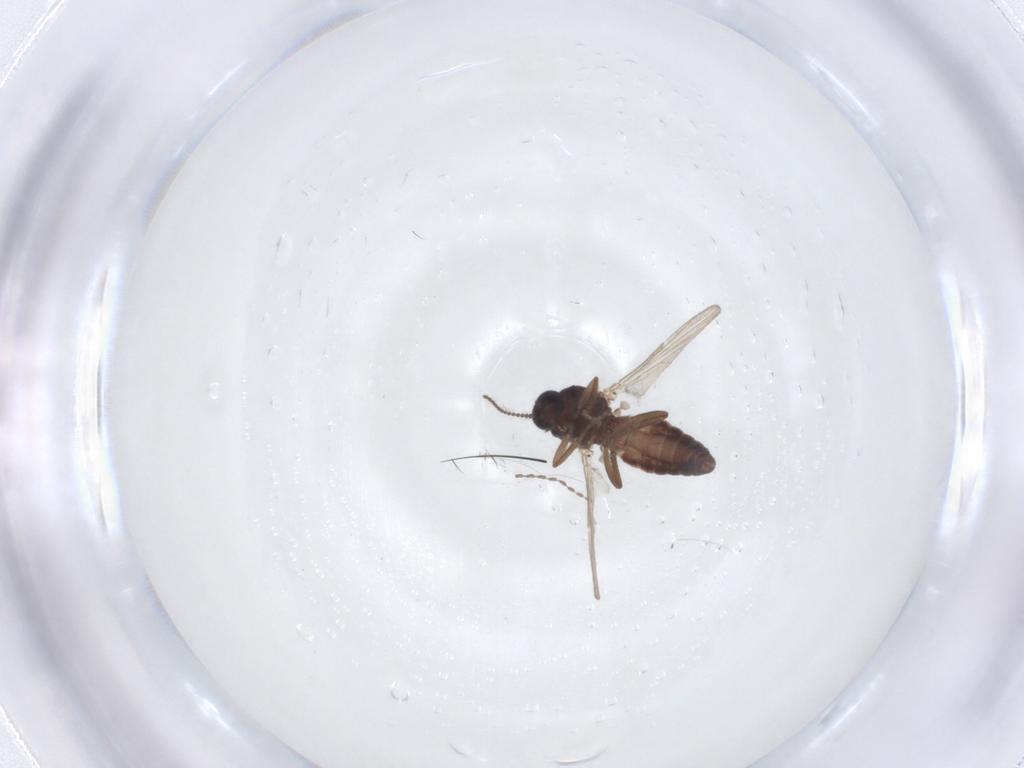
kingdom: Animalia
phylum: Arthropoda
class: Insecta
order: Diptera
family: Ceratopogonidae
